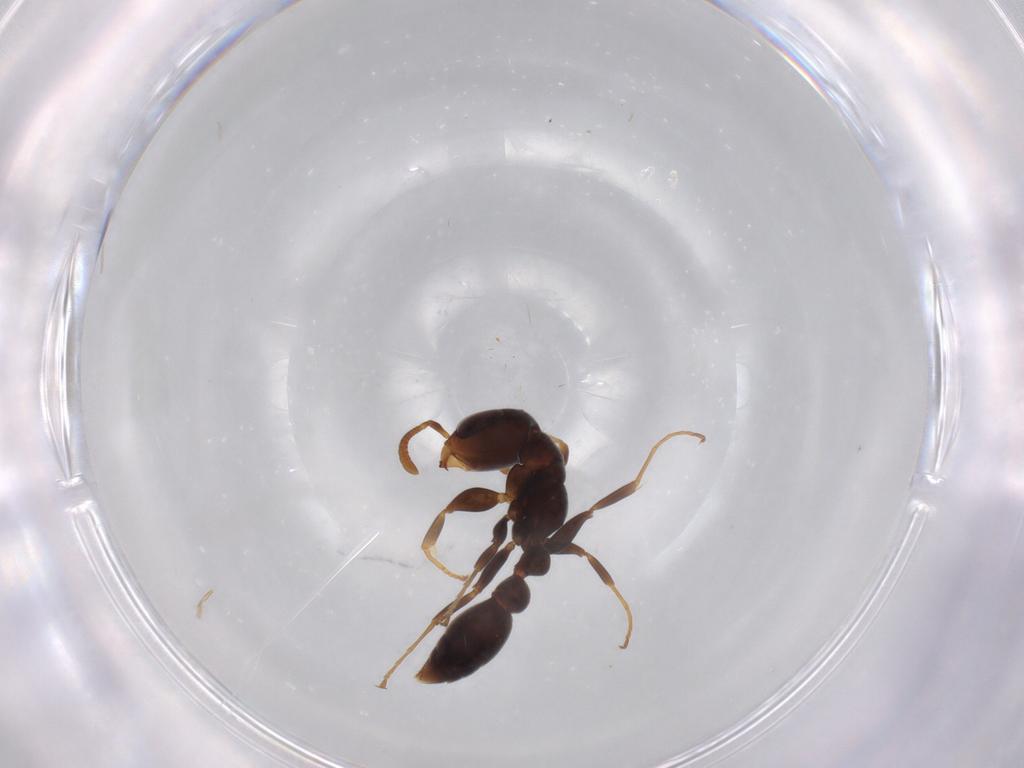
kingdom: Animalia
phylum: Arthropoda
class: Insecta
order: Hymenoptera
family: Formicidae
